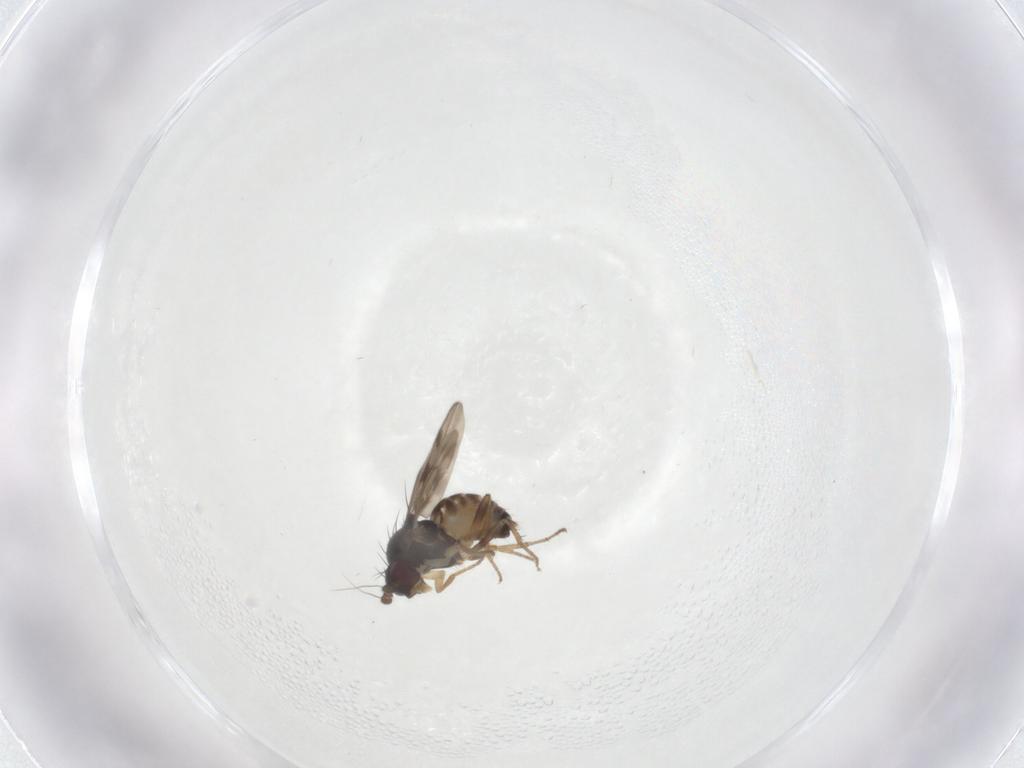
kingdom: Animalia
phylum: Arthropoda
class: Insecta
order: Diptera
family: Sphaeroceridae
